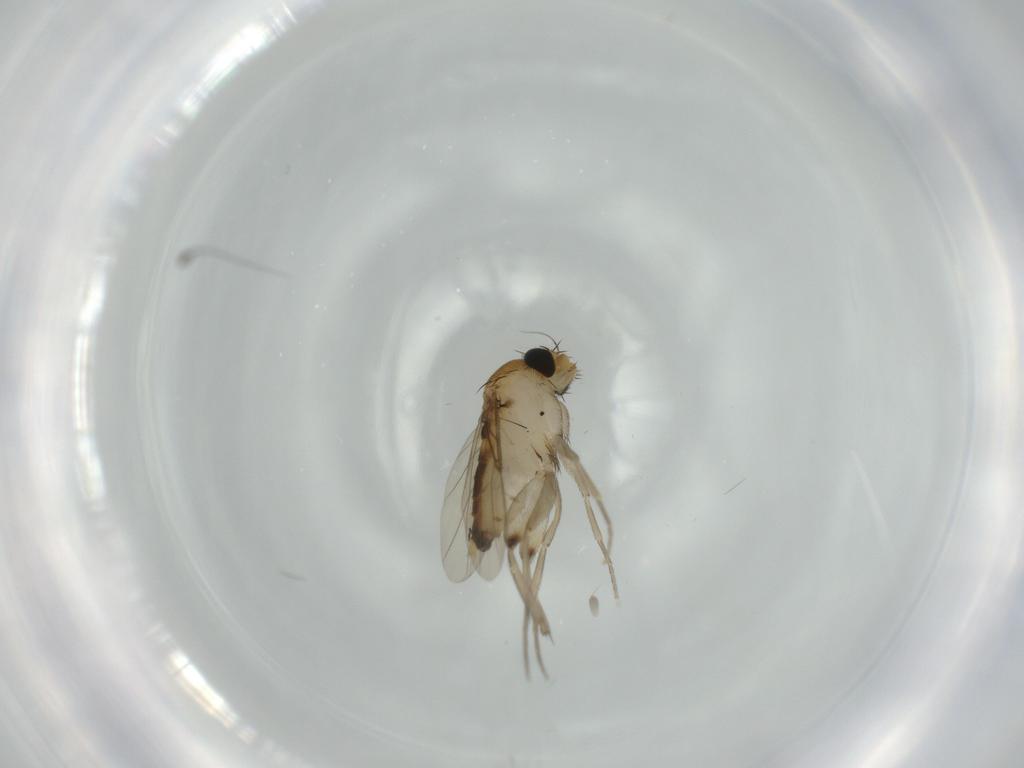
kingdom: Animalia
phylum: Arthropoda
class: Insecta
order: Diptera
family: Phoridae
